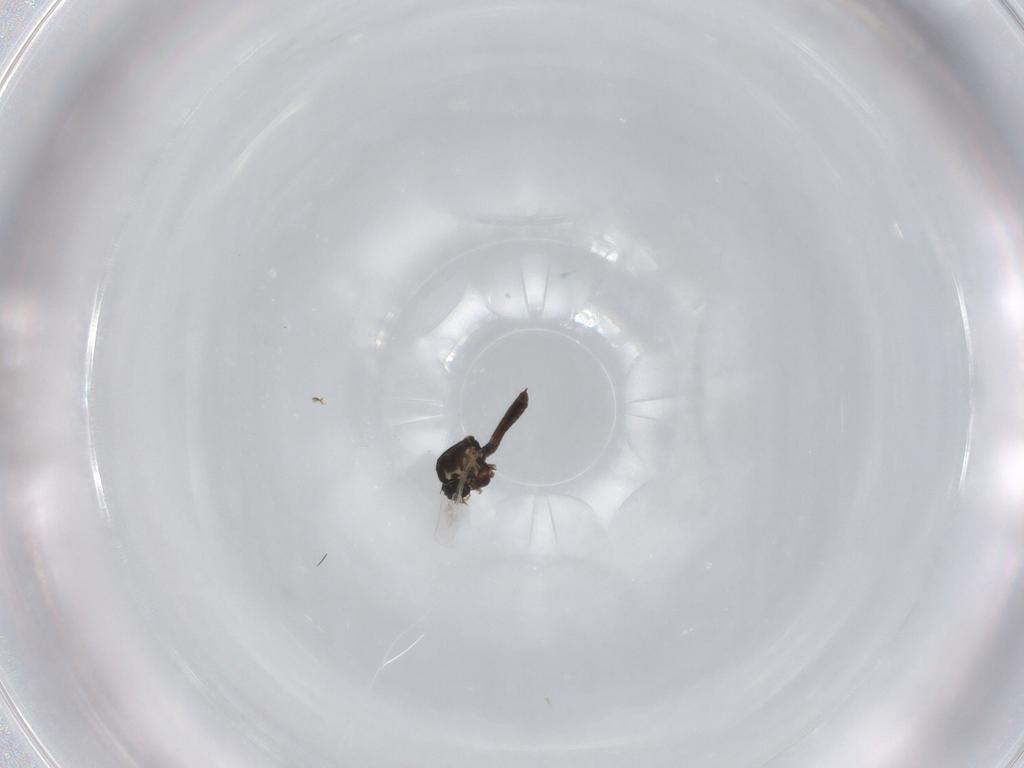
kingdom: Animalia
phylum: Arthropoda
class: Insecta
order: Diptera
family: Ceratopogonidae
